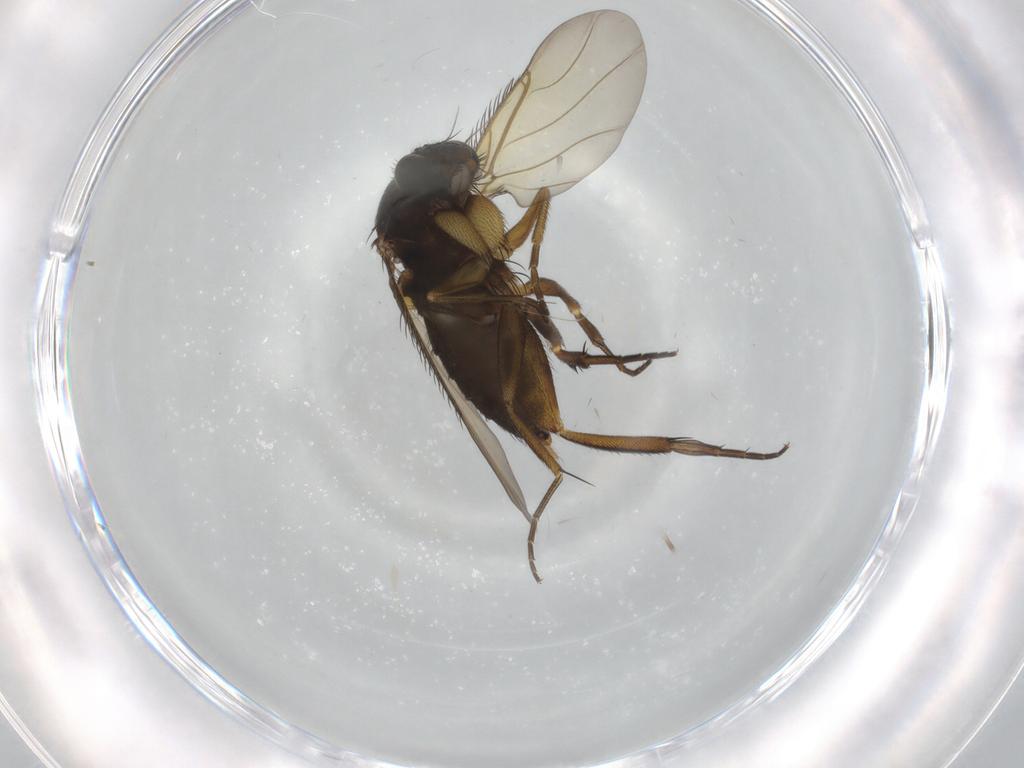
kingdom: Animalia
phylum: Arthropoda
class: Insecta
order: Diptera
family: Phoridae
